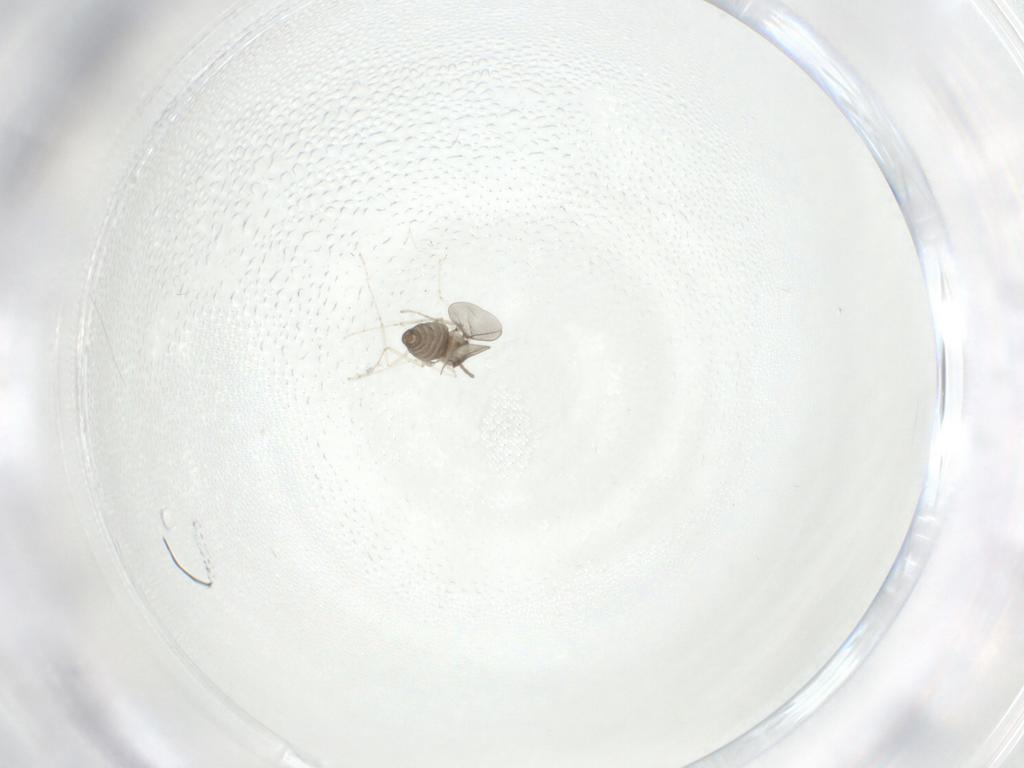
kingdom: Animalia
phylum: Arthropoda
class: Insecta
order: Diptera
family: Cecidomyiidae
